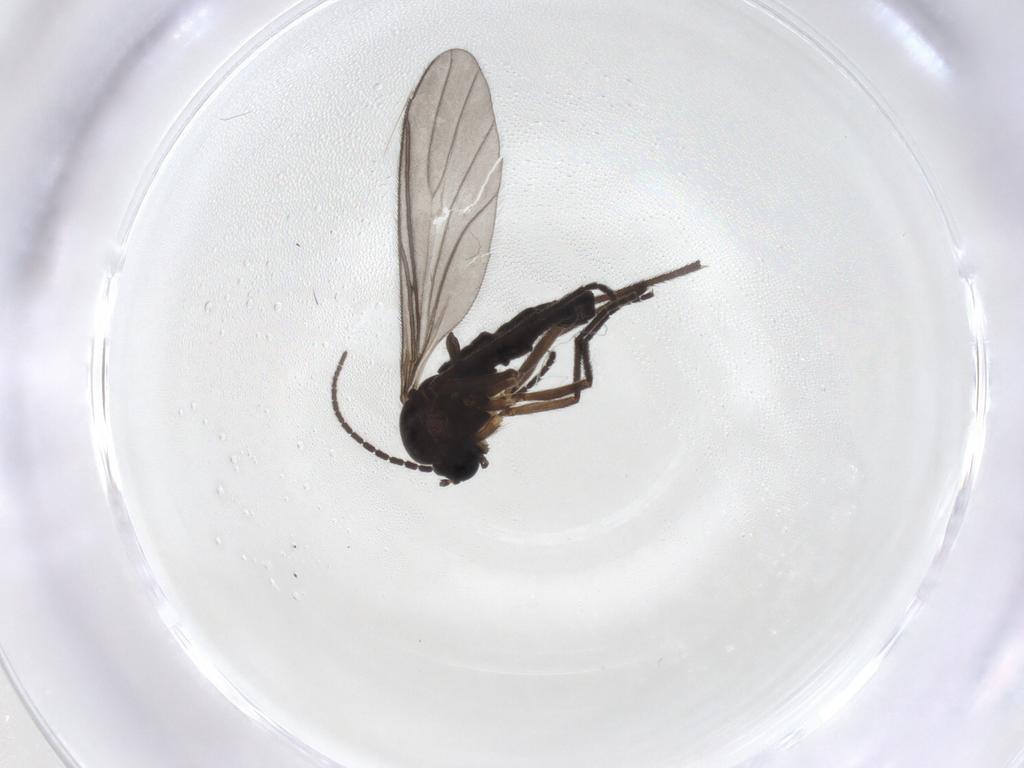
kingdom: Animalia
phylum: Arthropoda
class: Insecta
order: Diptera
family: Sciaridae
